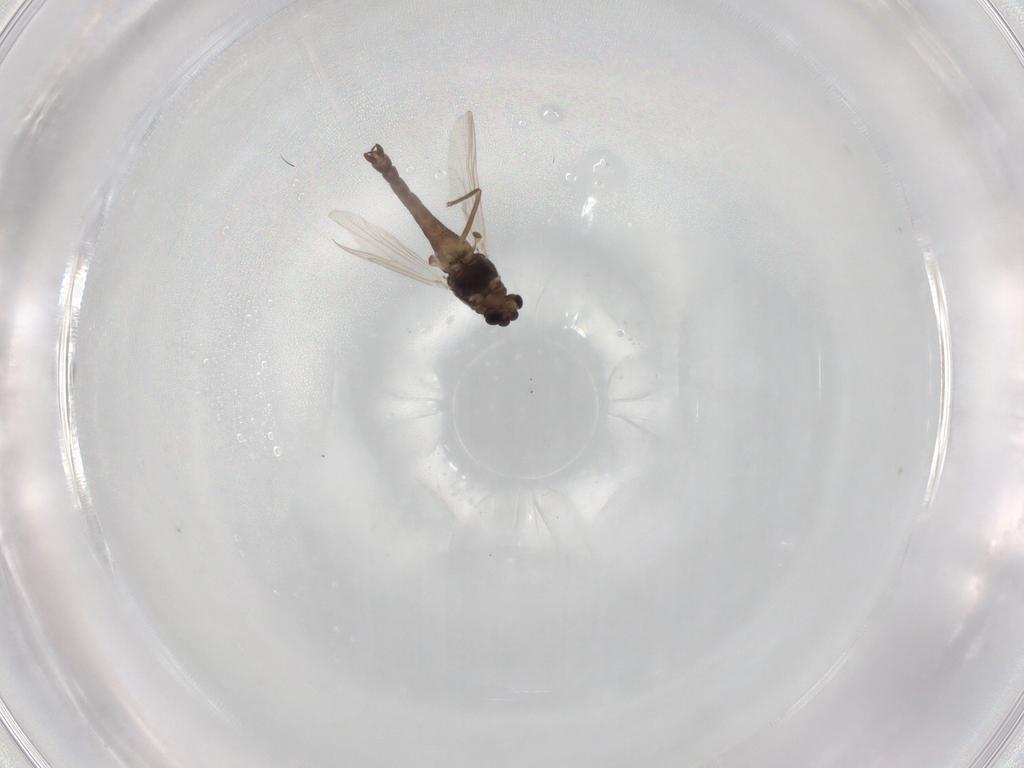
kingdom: Animalia
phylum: Arthropoda
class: Insecta
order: Diptera
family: Chironomidae
